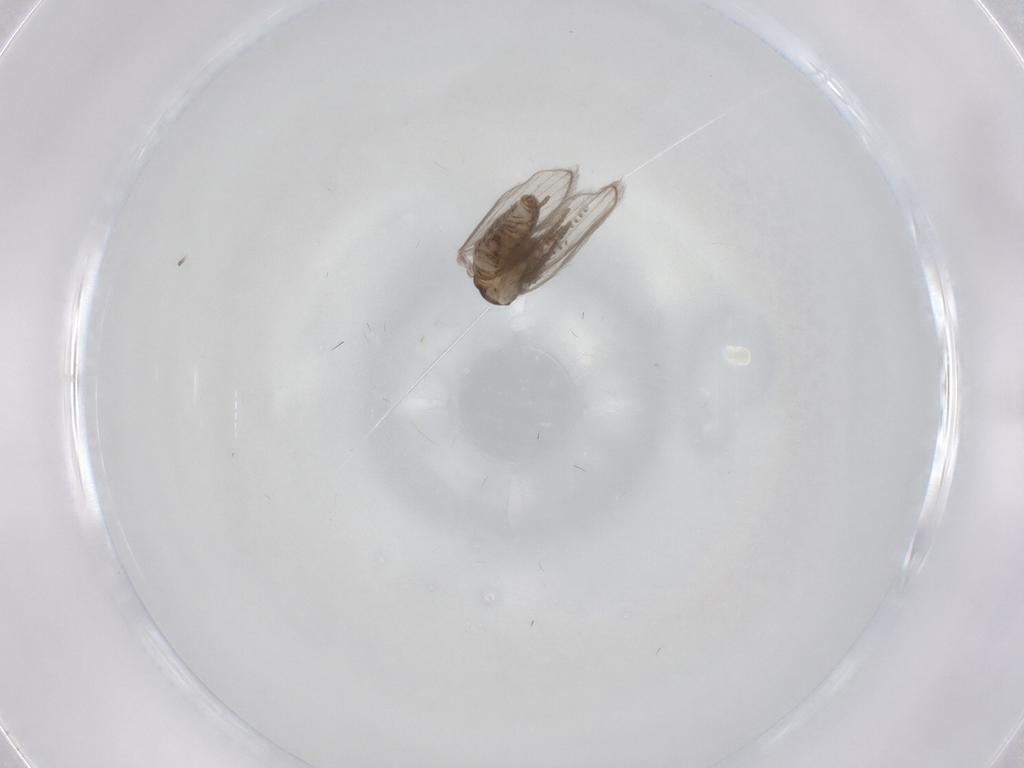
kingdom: Animalia
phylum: Arthropoda
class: Insecta
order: Diptera
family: Psychodidae
